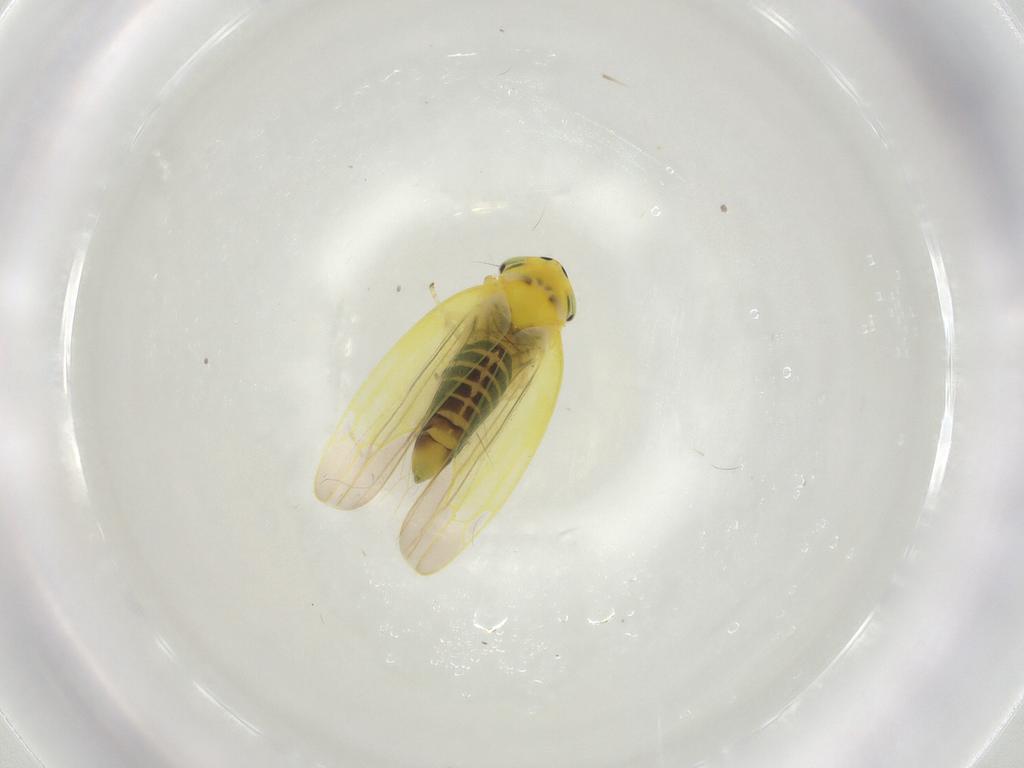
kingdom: Animalia
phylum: Arthropoda
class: Insecta
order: Hemiptera
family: Cicadellidae
